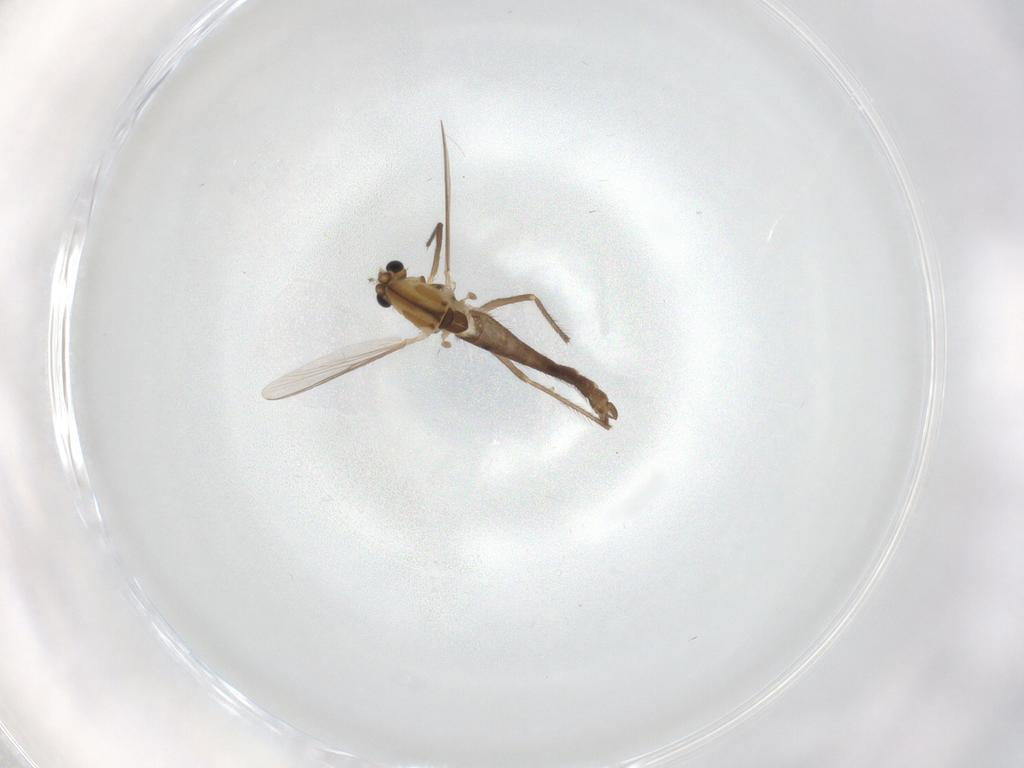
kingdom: Animalia
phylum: Arthropoda
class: Insecta
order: Diptera
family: Chironomidae
